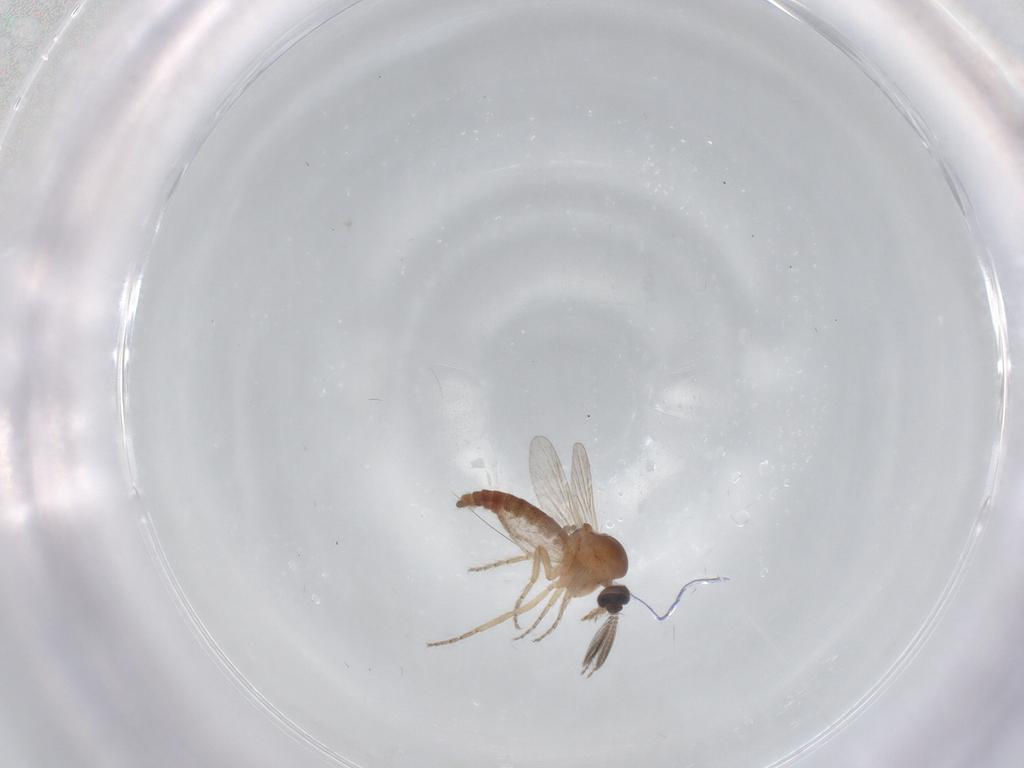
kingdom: Animalia
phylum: Arthropoda
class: Insecta
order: Diptera
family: Ceratopogonidae
